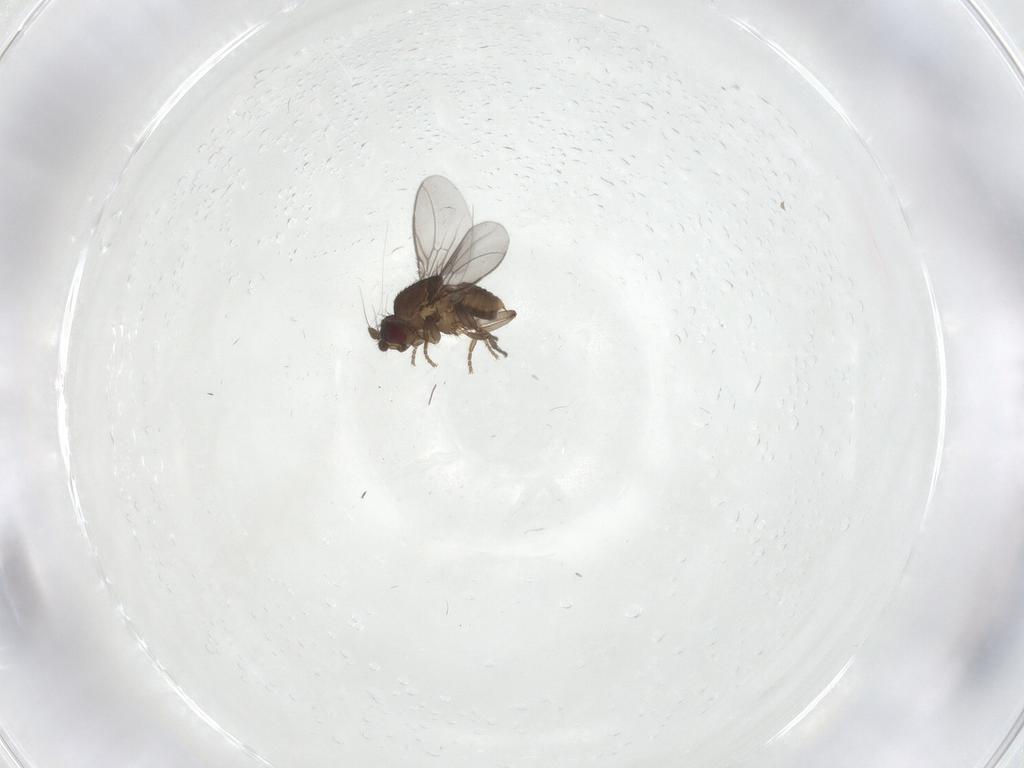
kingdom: Animalia
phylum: Arthropoda
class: Insecta
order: Diptera
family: Sphaeroceridae
